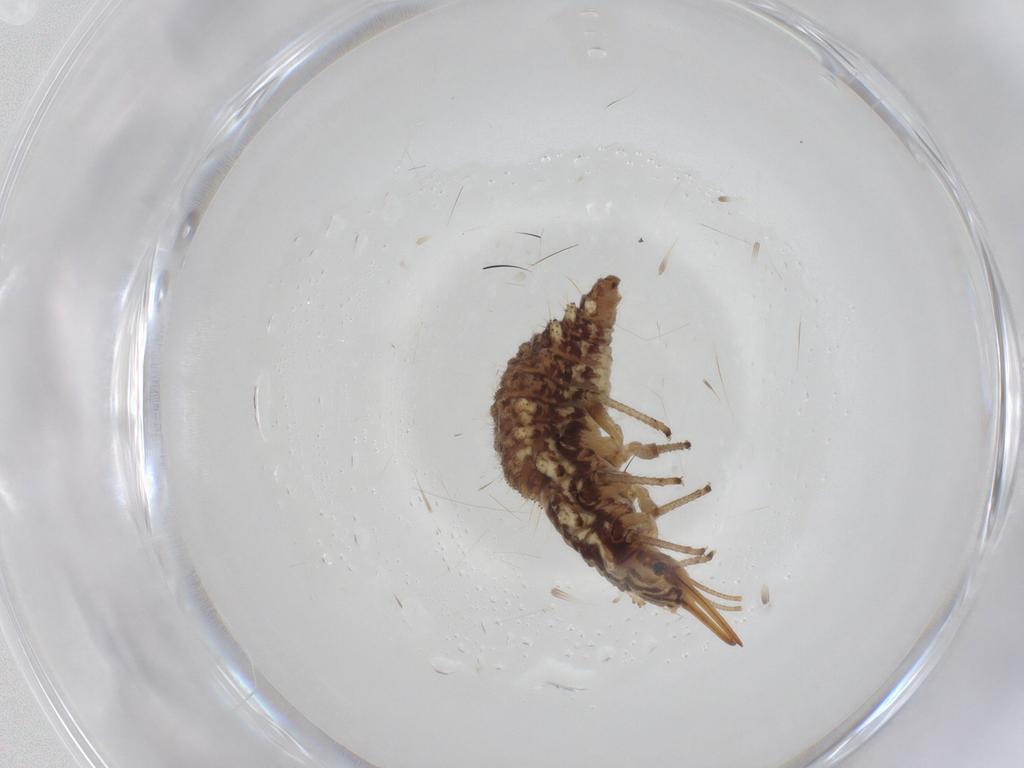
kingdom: Animalia
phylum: Arthropoda
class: Insecta
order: Neuroptera
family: Chrysopidae
